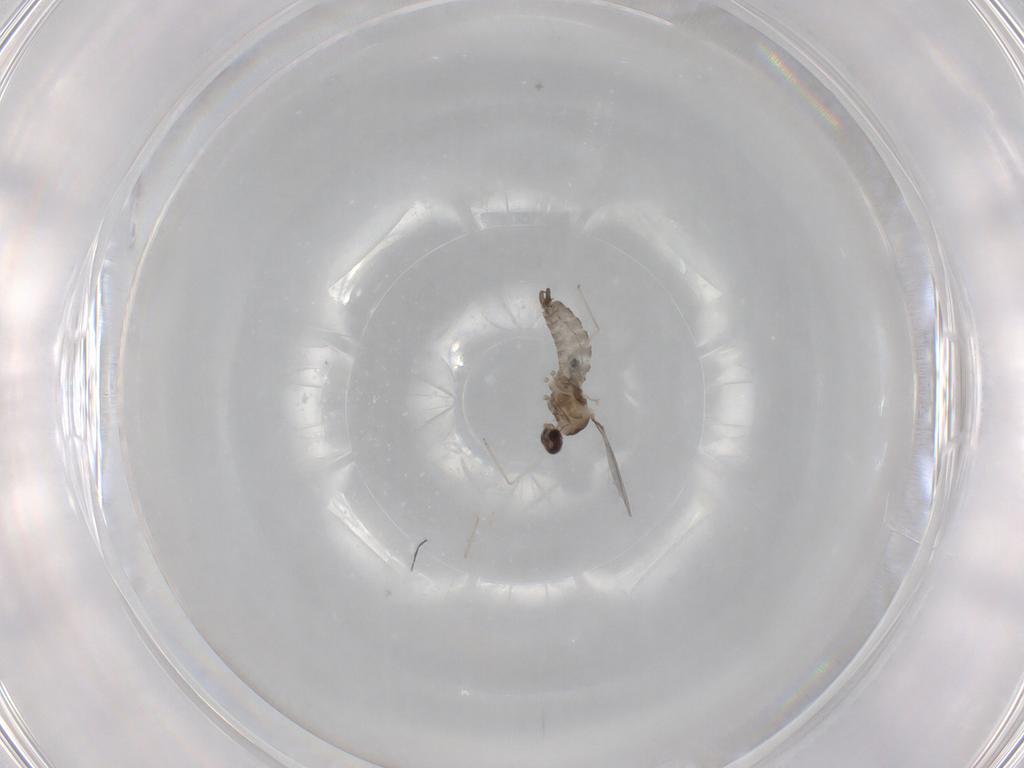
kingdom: Animalia
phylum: Arthropoda
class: Insecta
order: Diptera
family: Cecidomyiidae
